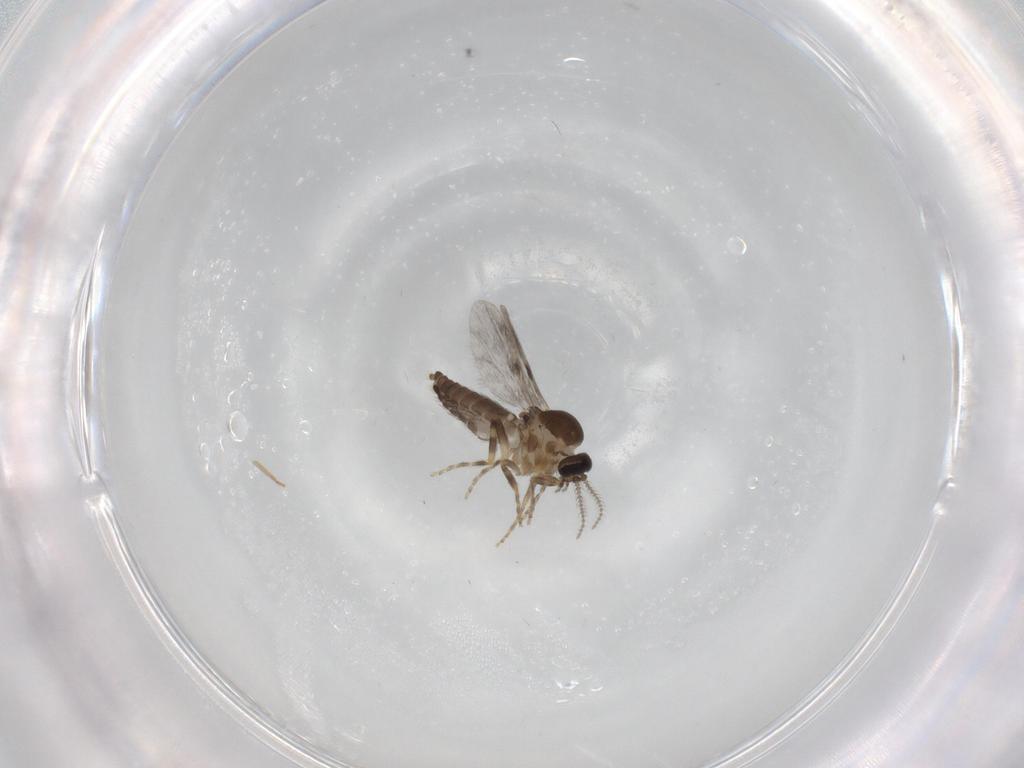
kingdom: Animalia
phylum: Arthropoda
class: Insecta
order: Diptera
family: Ceratopogonidae
